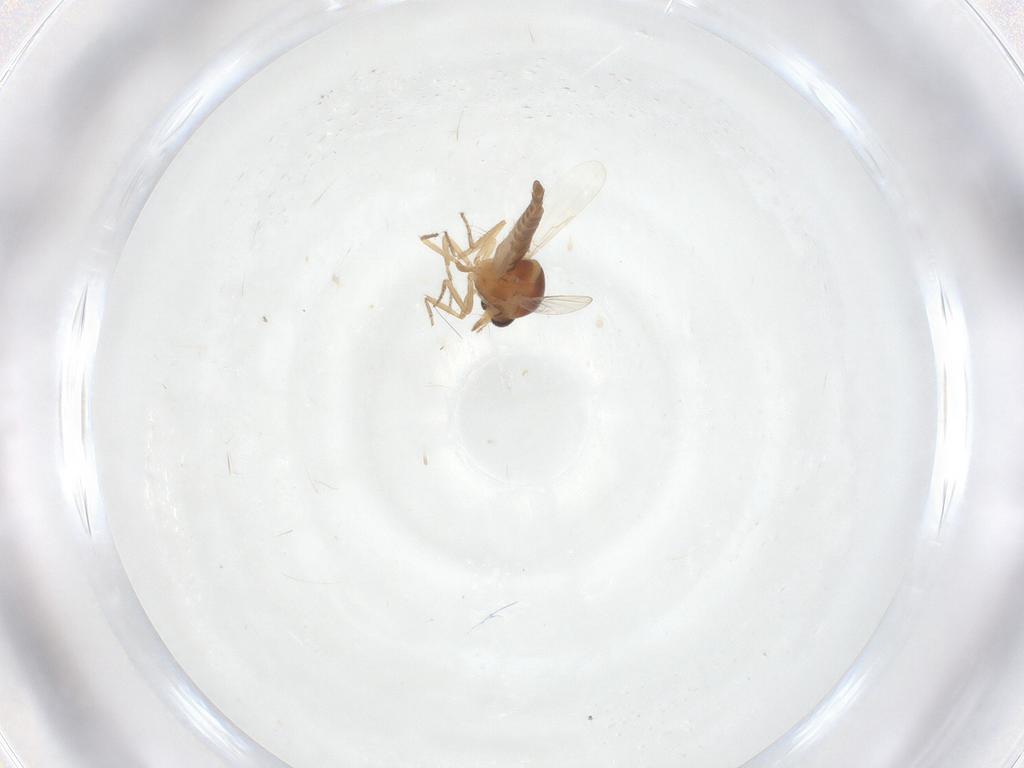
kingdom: Animalia
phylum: Arthropoda
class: Insecta
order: Diptera
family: Ceratopogonidae
